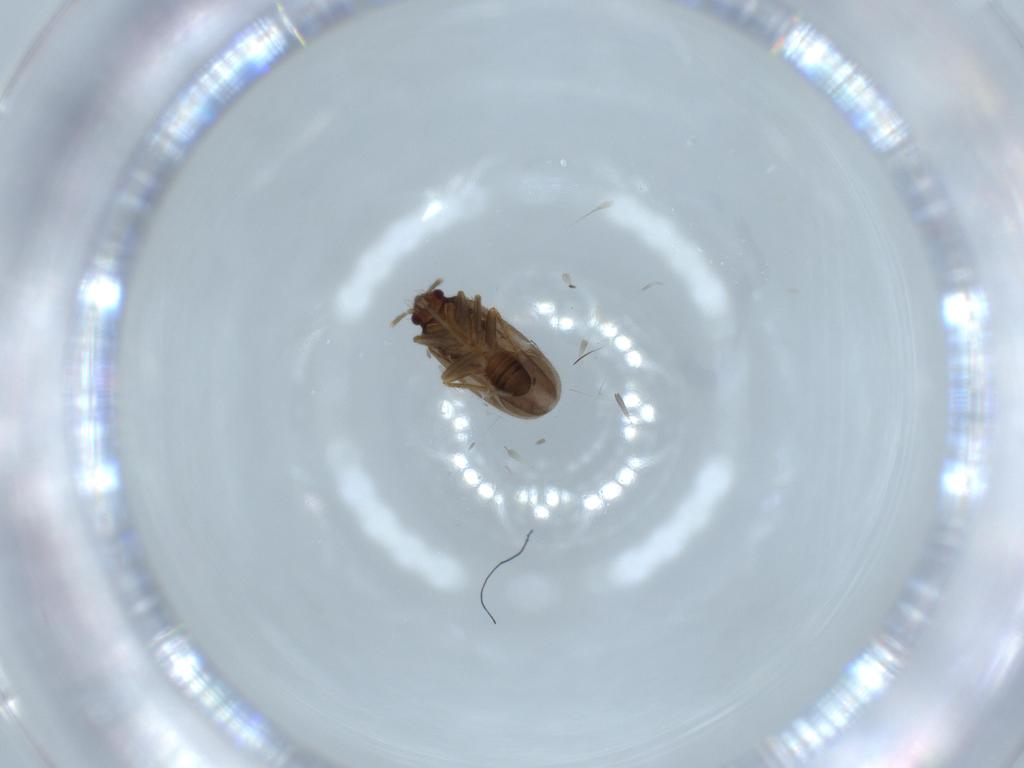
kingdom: Animalia
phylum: Arthropoda
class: Insecta
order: Hemiptera
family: Ceratocombidae
